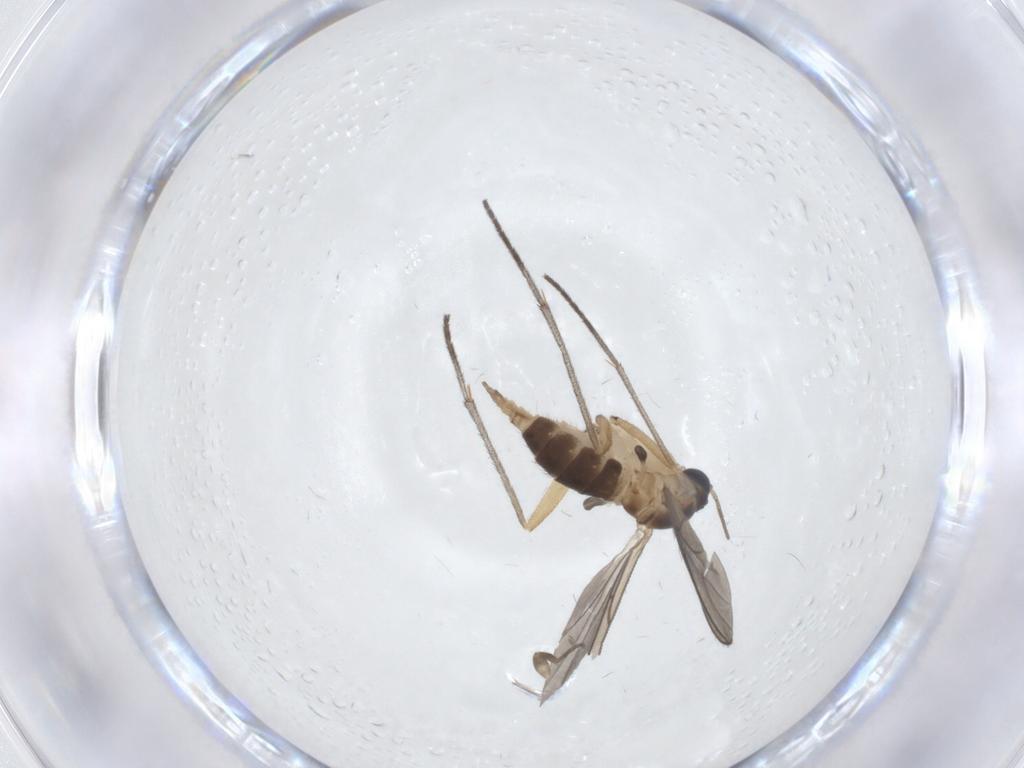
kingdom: Animalia
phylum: Arthropoda
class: Insecta
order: Diptera
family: Sciaridae
